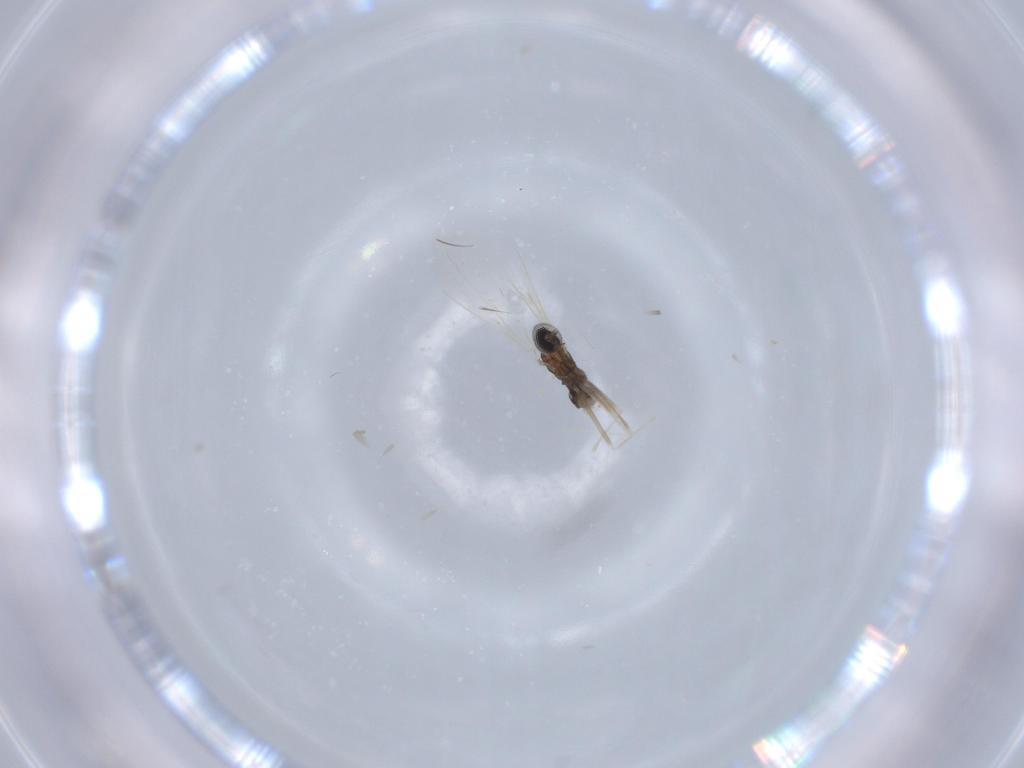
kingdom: Animalia
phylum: Arthropoda
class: Insecta
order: Diptera
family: Cecidomyiidae
